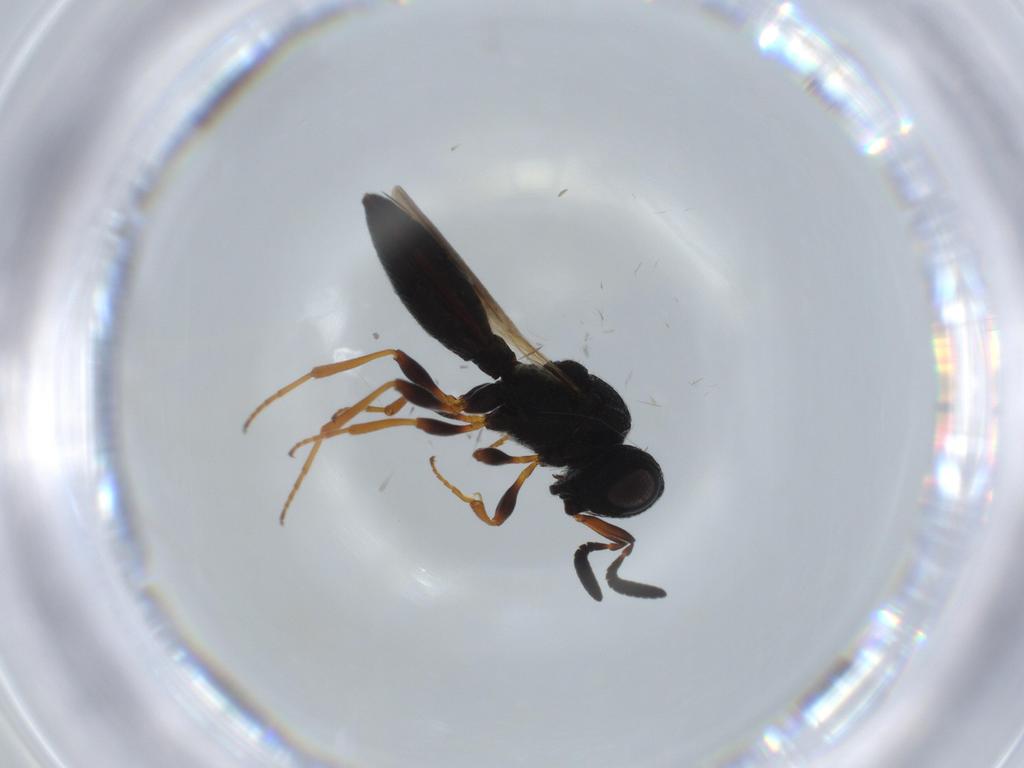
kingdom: Animalia
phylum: Arthropoda
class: Insecta
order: Hymenoptera
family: Scelionidae
